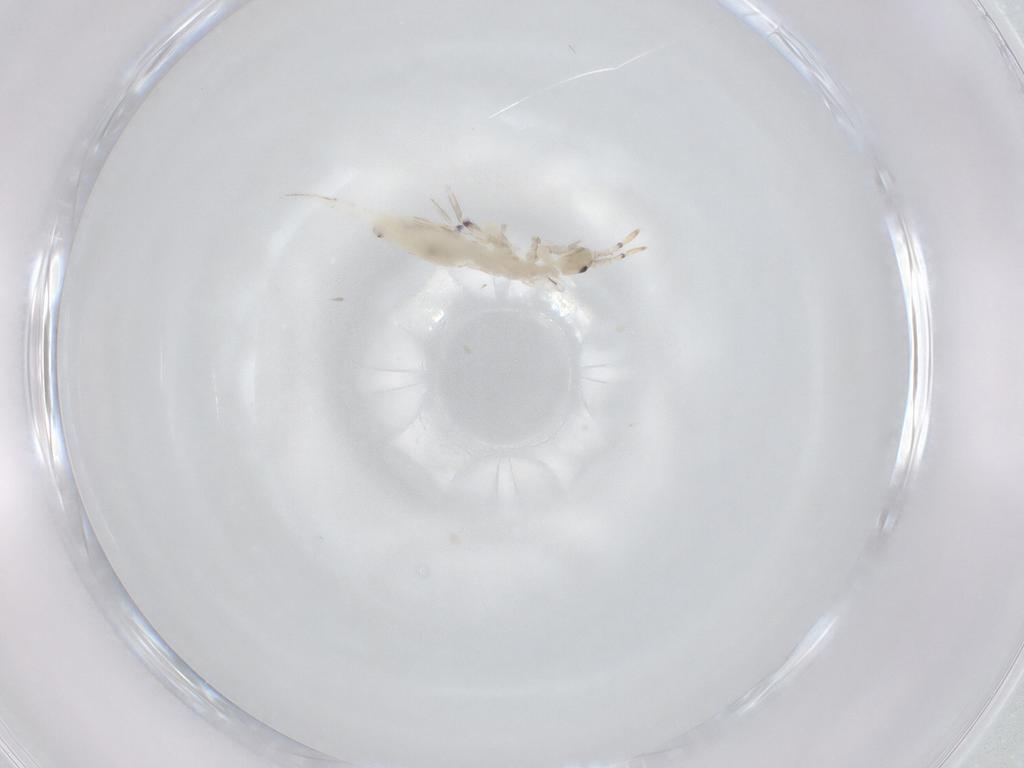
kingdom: Animalia
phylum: Arthropoda
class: Collembola
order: Entomobryomorpha
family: Entomobryidae
